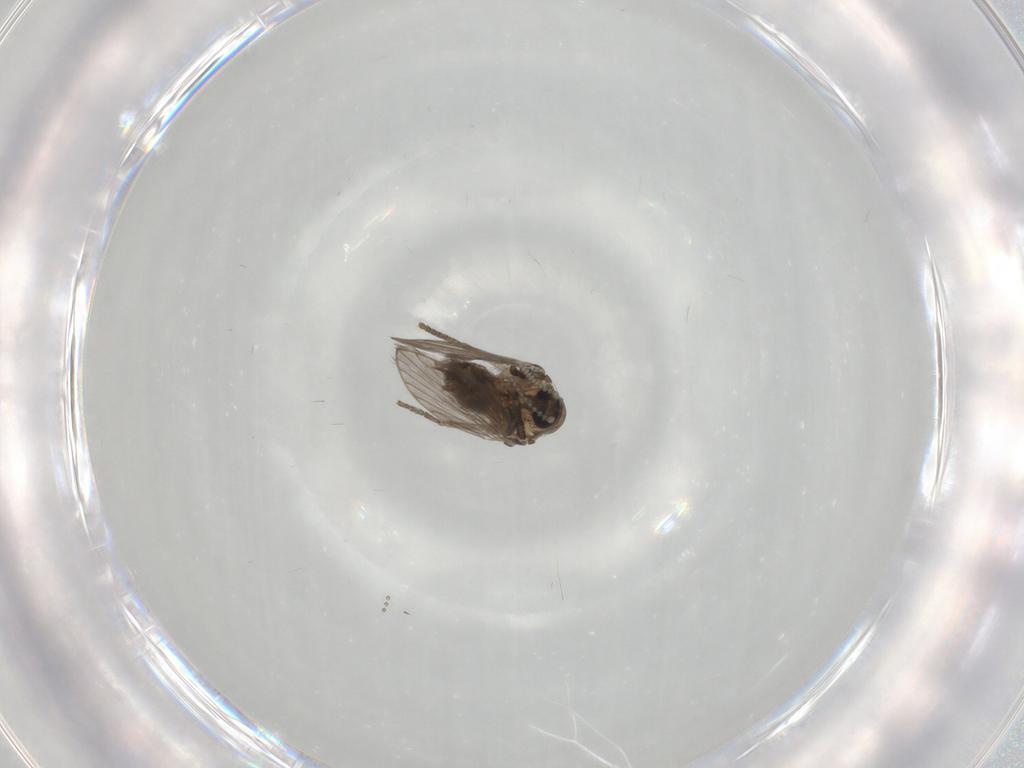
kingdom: Animalia
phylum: Arthropoda
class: Insecta
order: Diptera
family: Psychodidae
